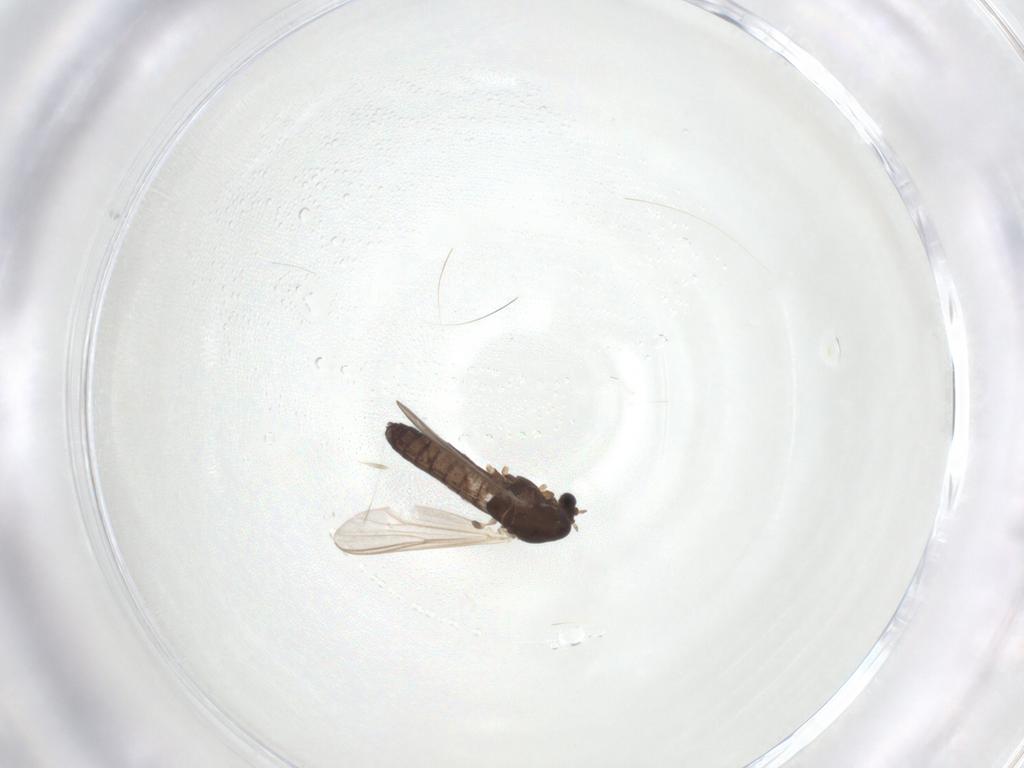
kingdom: Animalia
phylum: Arthropoda
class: Insecta
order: Diptera
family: Chironomidae
